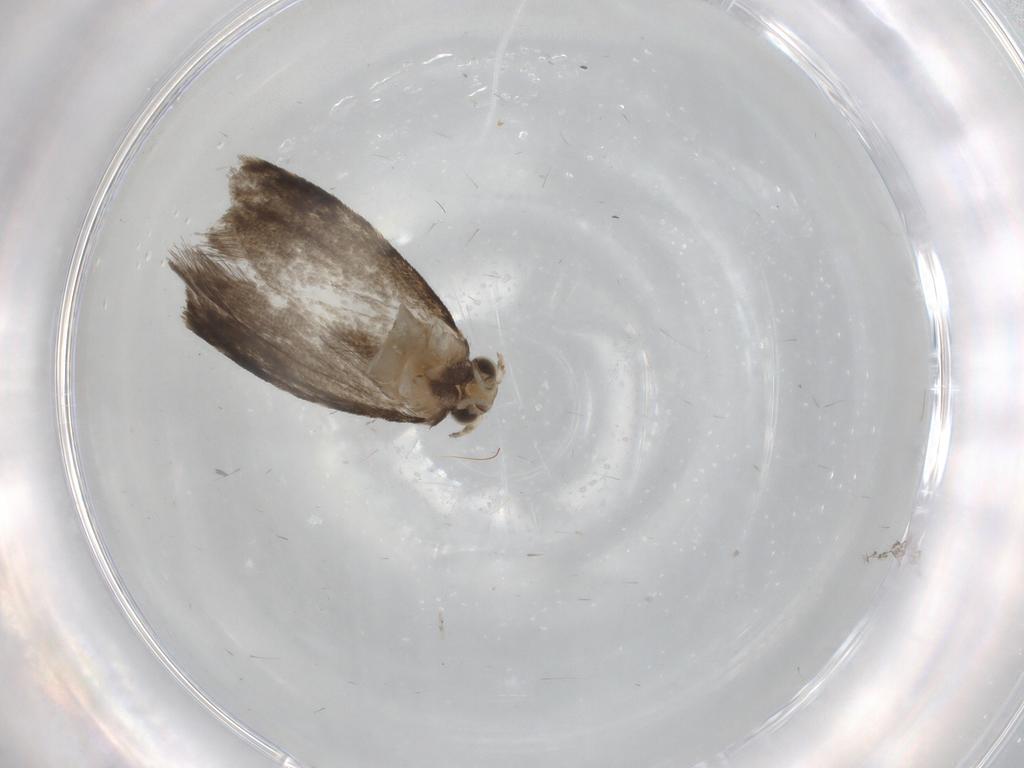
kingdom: Animalia
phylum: Arthropoda
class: Insecta
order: Lepidoptera
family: Tineidae
